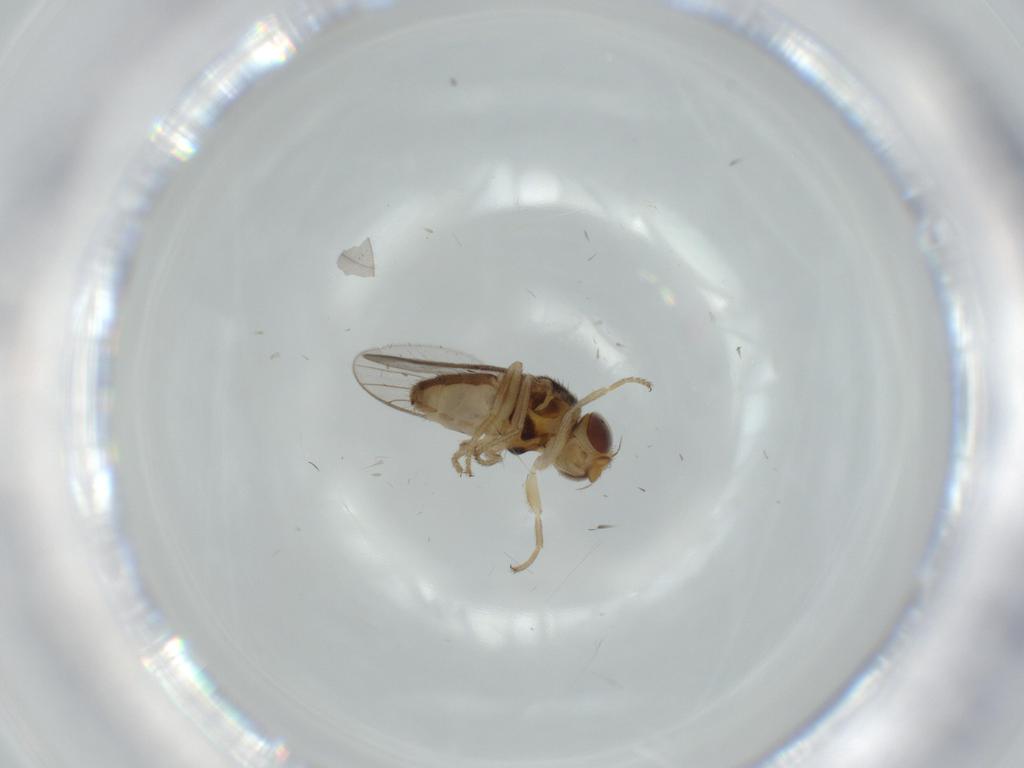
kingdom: Animalia
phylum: Arthropoda
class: Insecta
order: Diptera
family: Chloropidae
